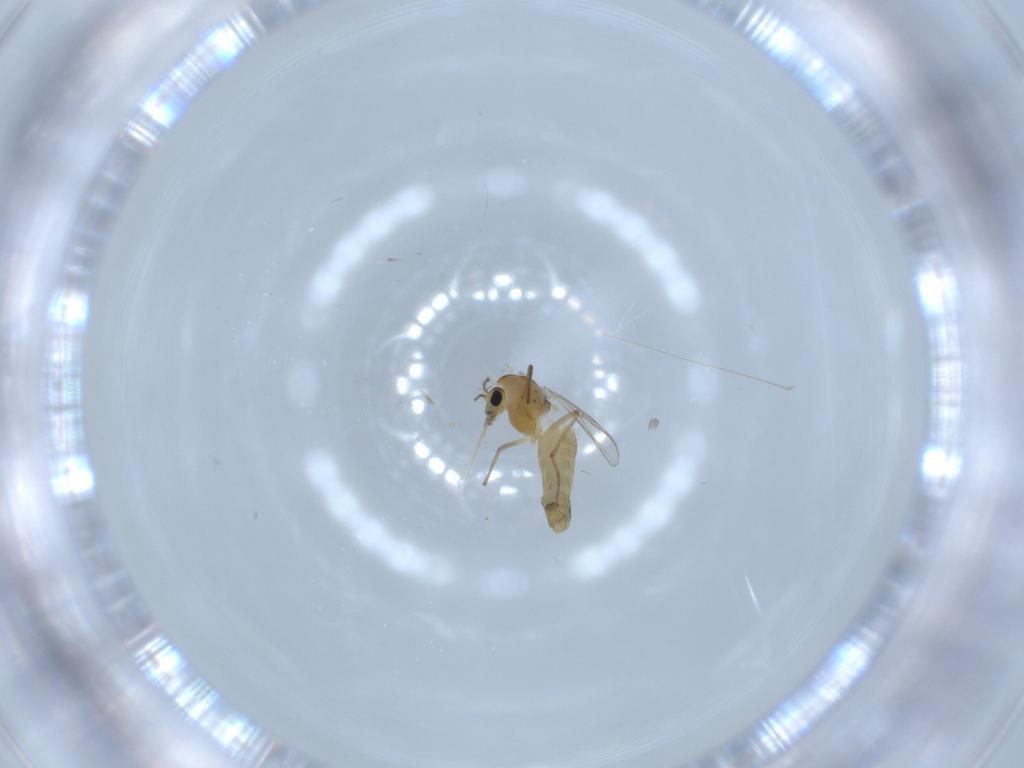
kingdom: Animalia
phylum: Arthropoda
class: Insecta
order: Diptera
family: Chironomidae
